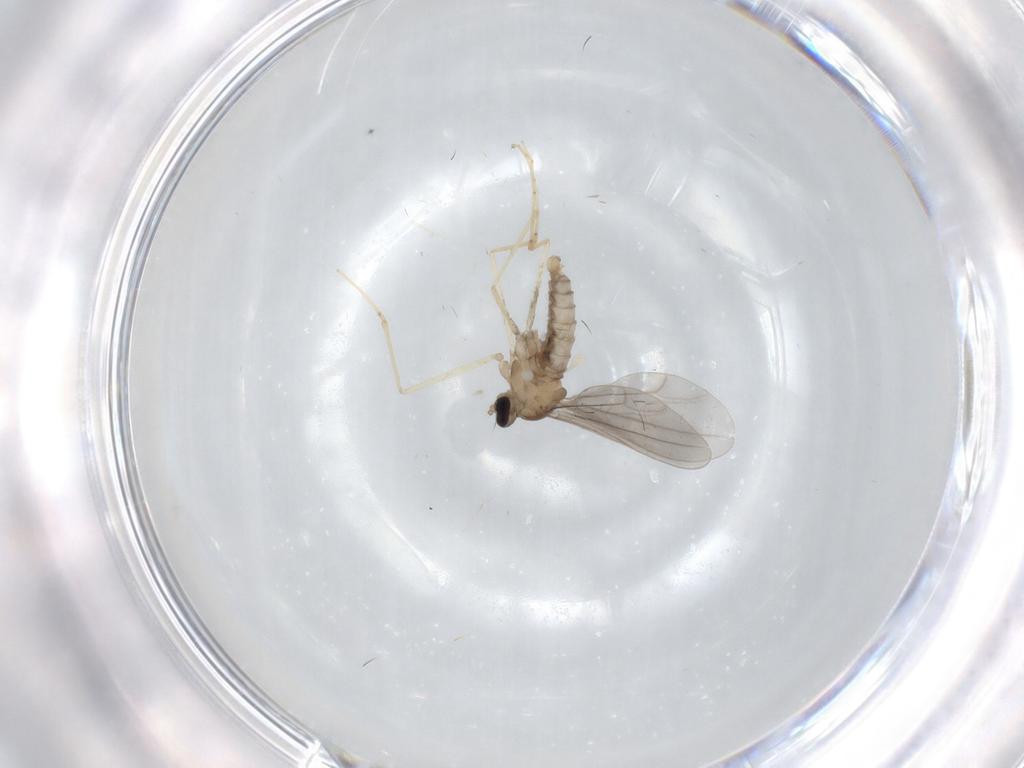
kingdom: Animalia
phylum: Arthropoda
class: Insecta
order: Diptera
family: Cecidomyiidae
